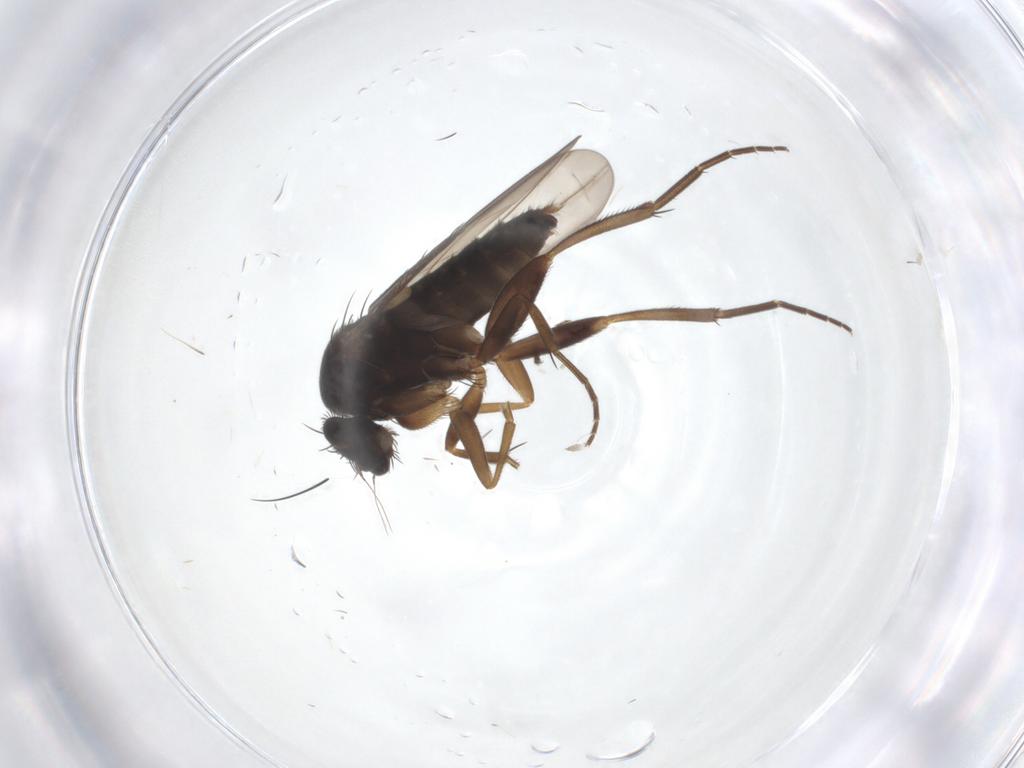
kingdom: Animalia
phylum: Arthropoda
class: Insecta
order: Diptera
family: Phoridae
